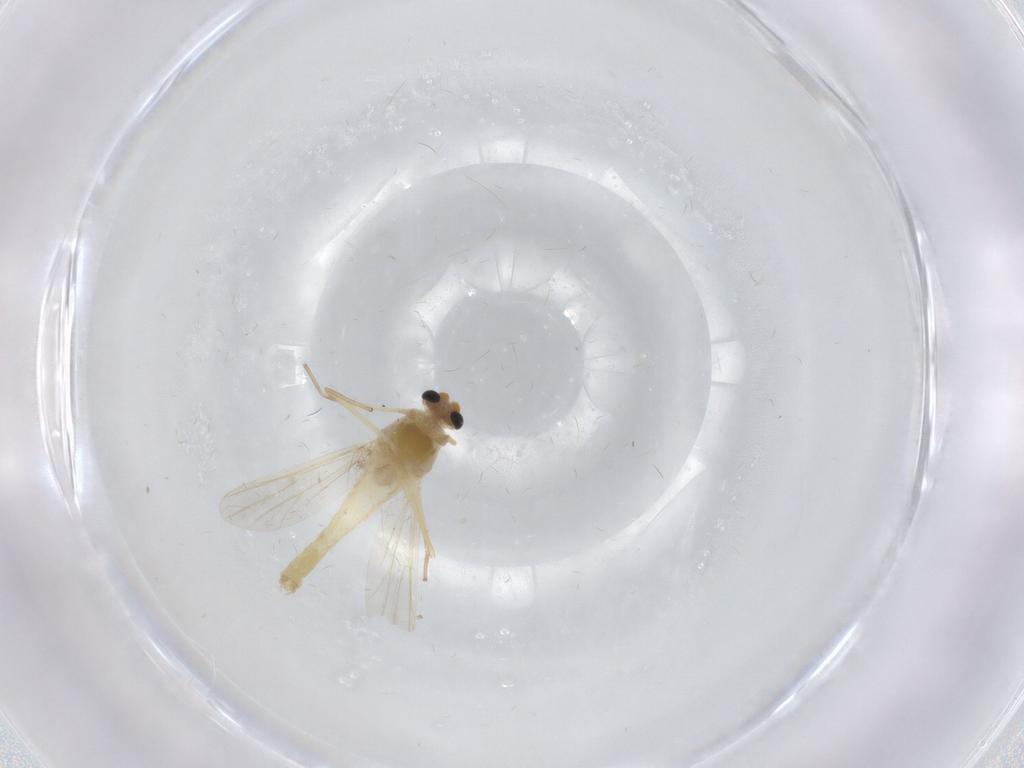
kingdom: Animalia
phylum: Arthropoda
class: Insecta
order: Diptera
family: Chironomidae
